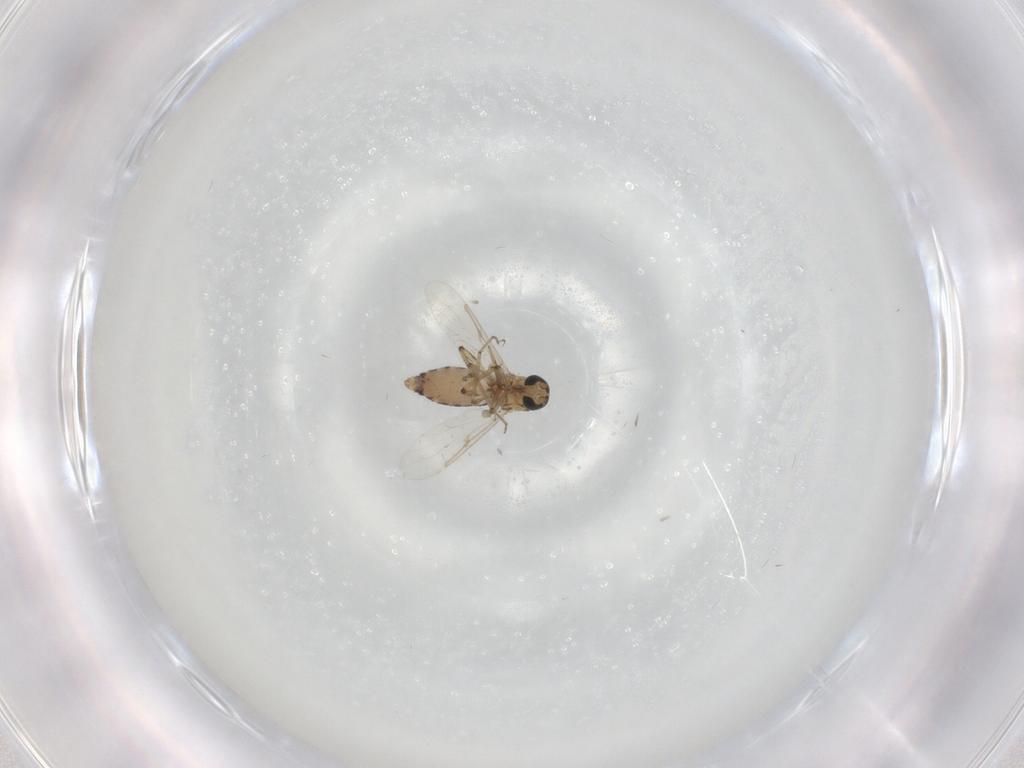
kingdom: Animalia
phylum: Arthropoda
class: Insecta
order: Diptera
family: Ceratopogonidae
